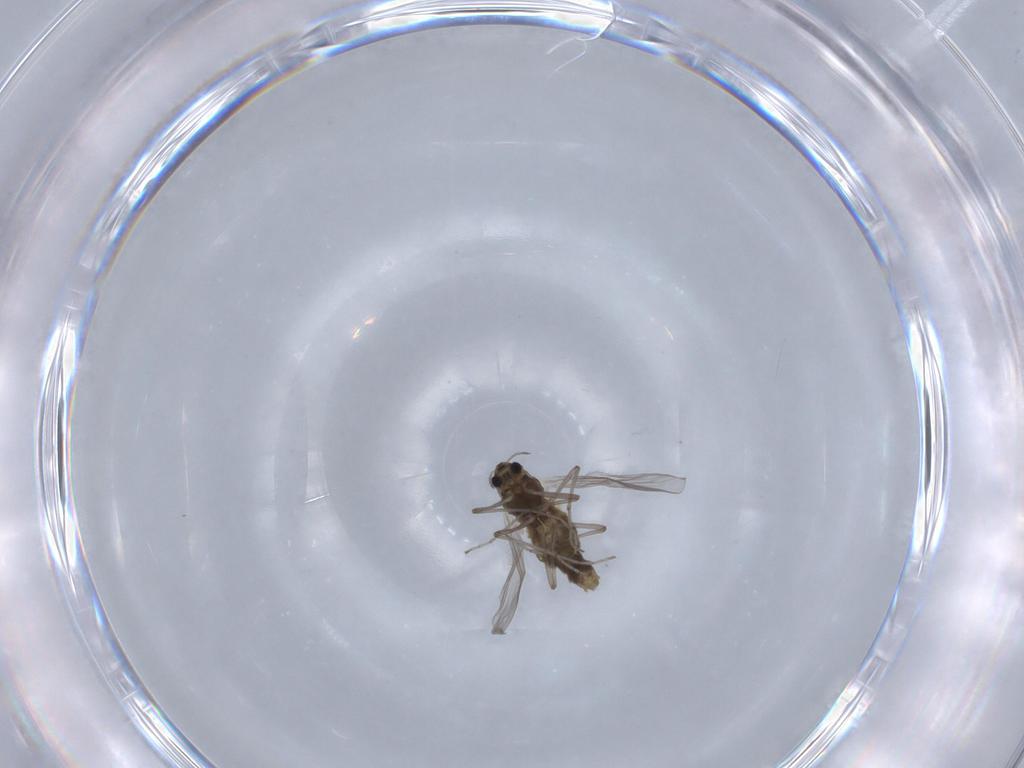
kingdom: Animalia
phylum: Arthropoda
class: Insecta
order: Diptera
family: Chironomidae
